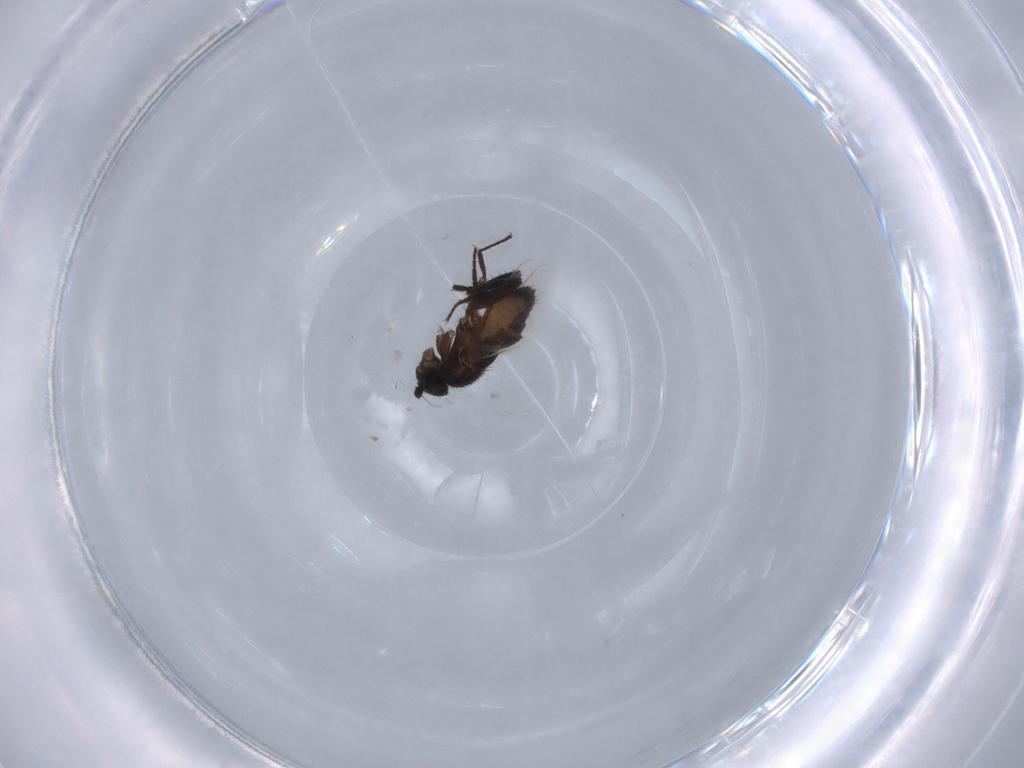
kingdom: Animalia
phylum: Arthropoda
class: Insecta
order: Diptera
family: Sphaeroceridae
